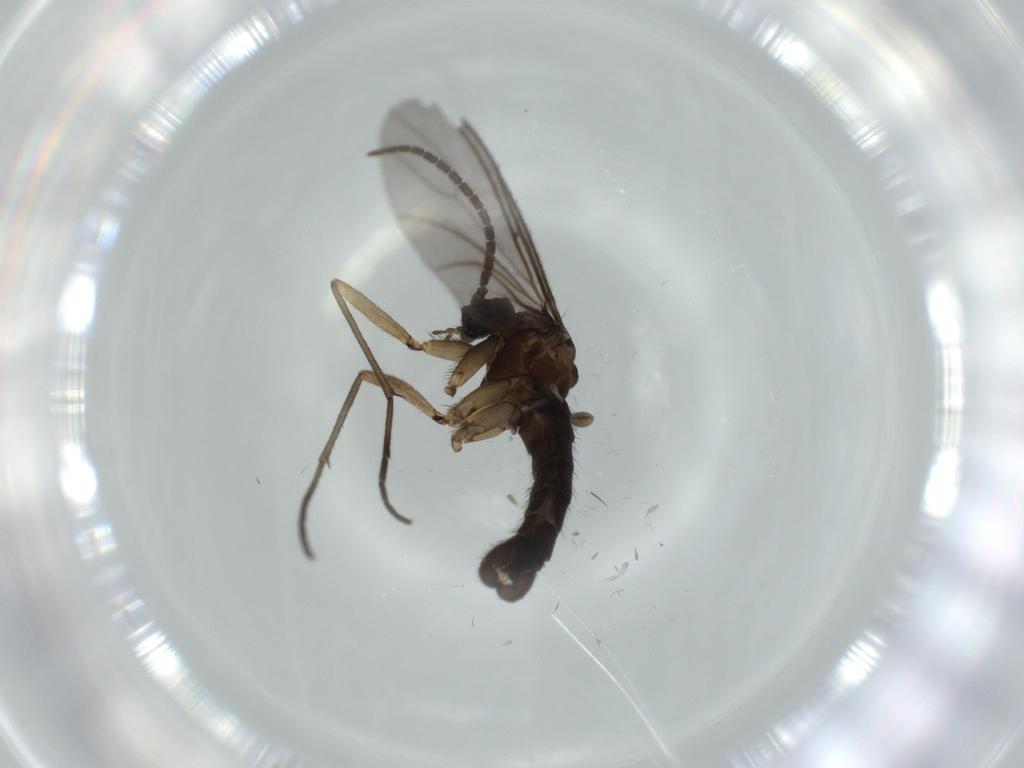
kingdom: Animalia
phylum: Arthropoda
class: Insecta
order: Diptera
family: Sciaridae
